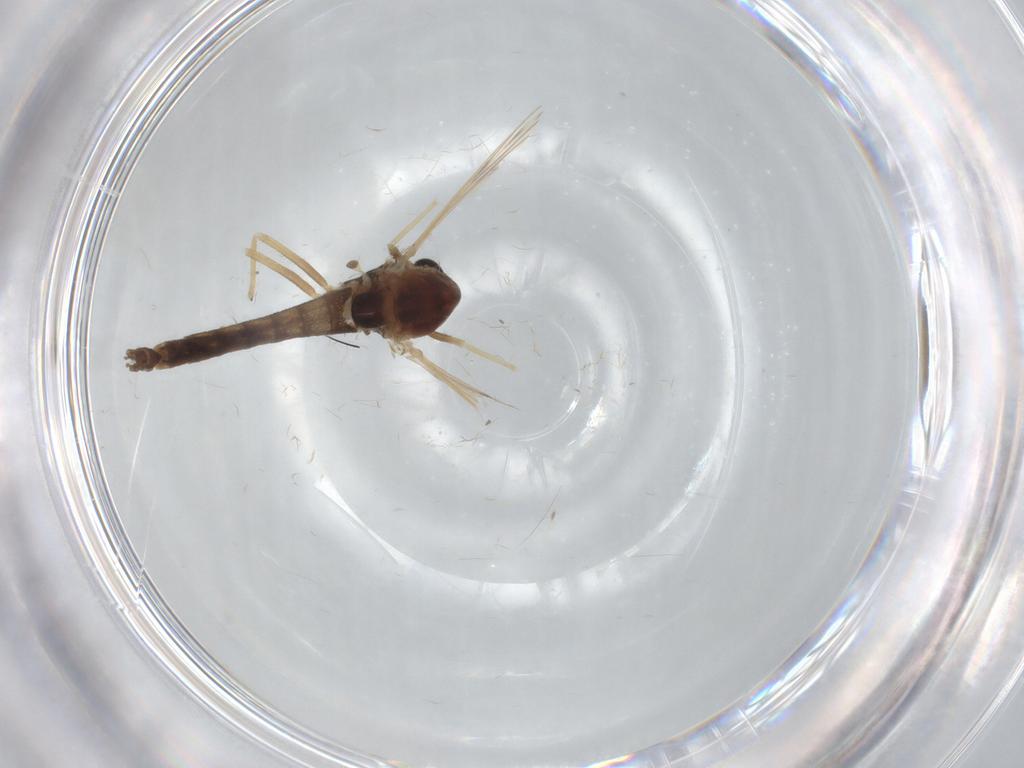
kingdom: Animalia
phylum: Arthropoda
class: Insecta
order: Diptera
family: Chironomidae
